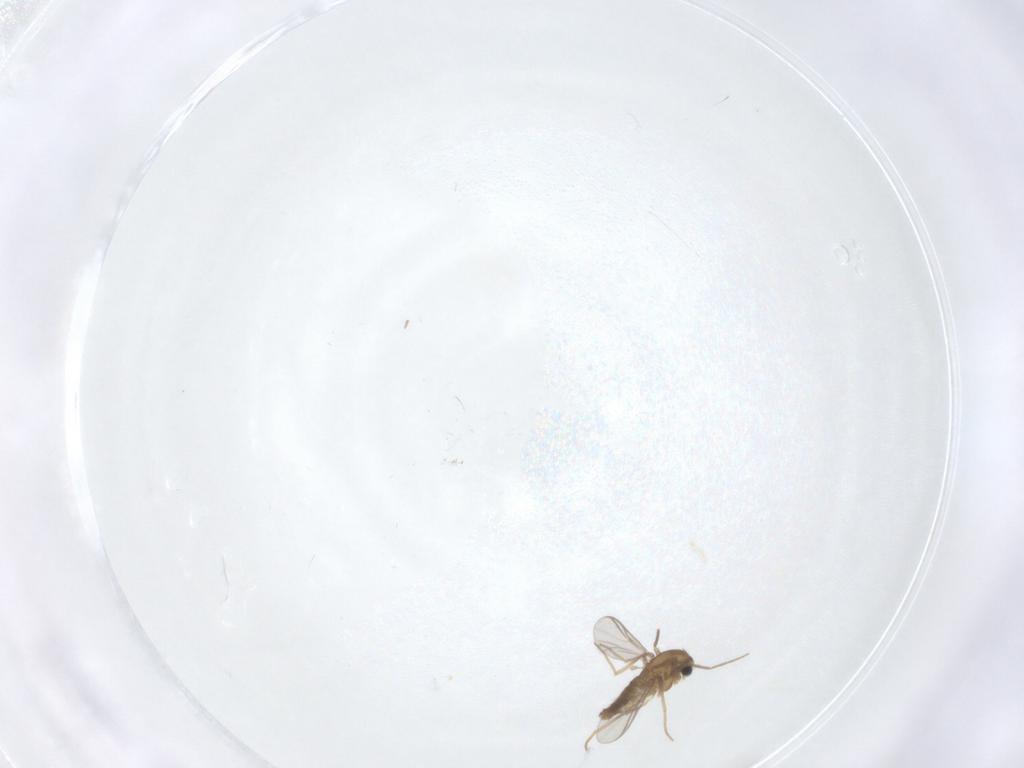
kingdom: Animalia
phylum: Arthropoda
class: Insecta
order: Diptera
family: Chironomidae
